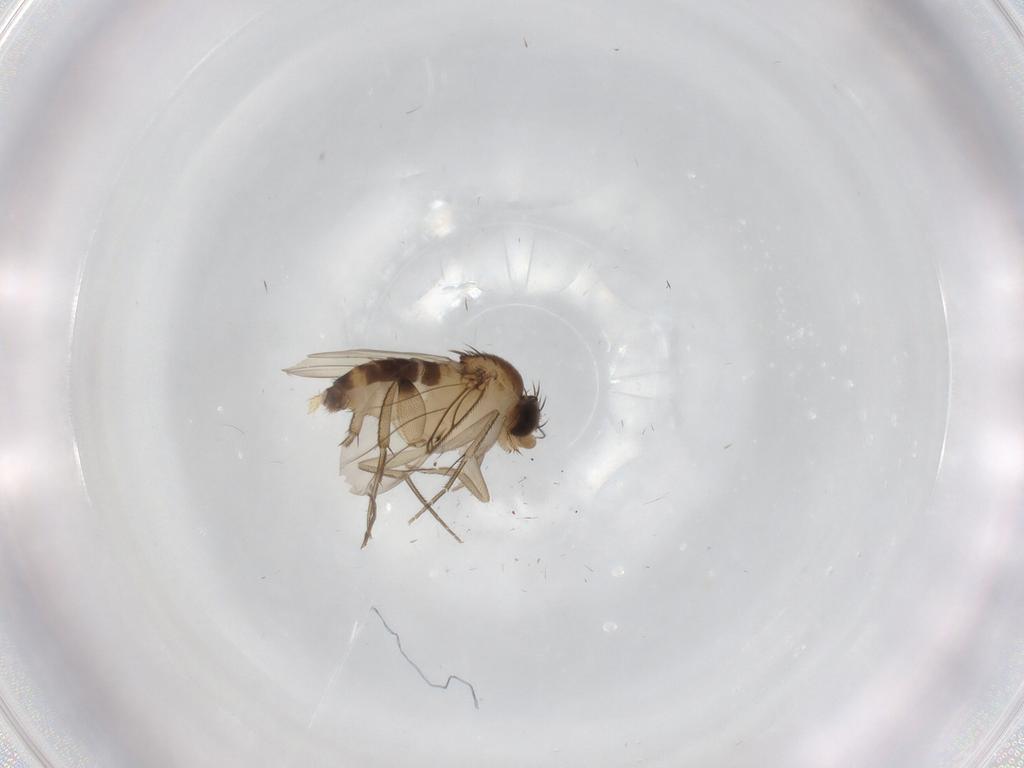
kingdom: Animalia
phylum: Arthropoda
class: Insecta
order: Diptera
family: Phoridae
